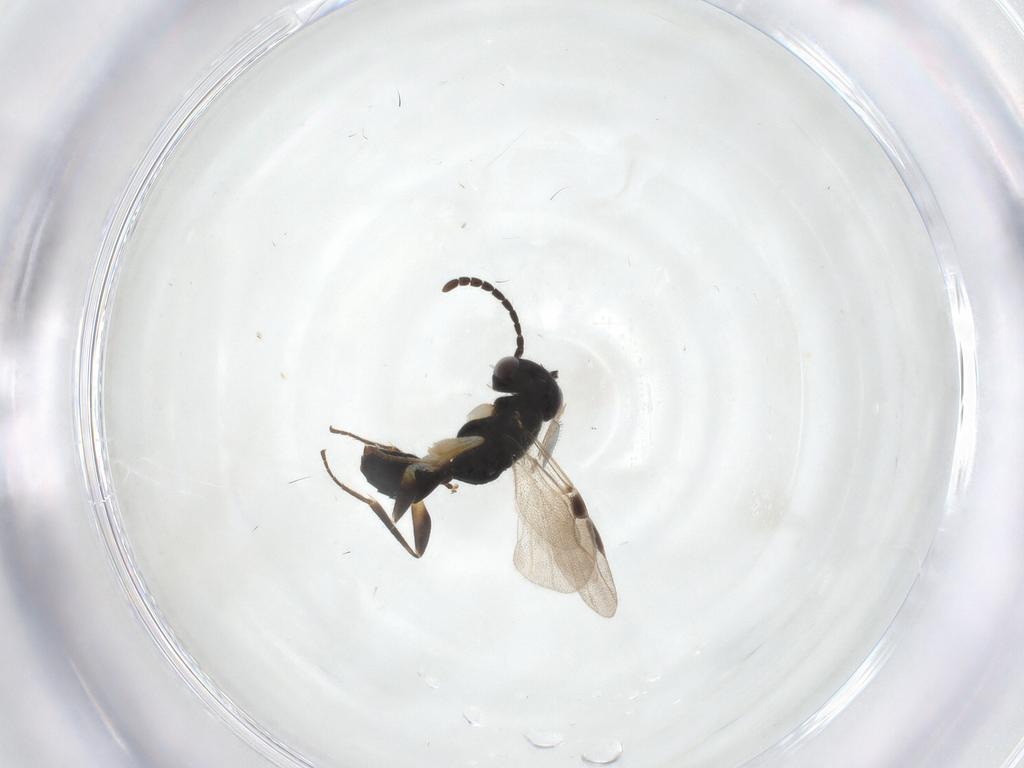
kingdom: Animalia
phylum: Arthropoda
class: Insecta
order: Hymenoptera
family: Dryinidae
